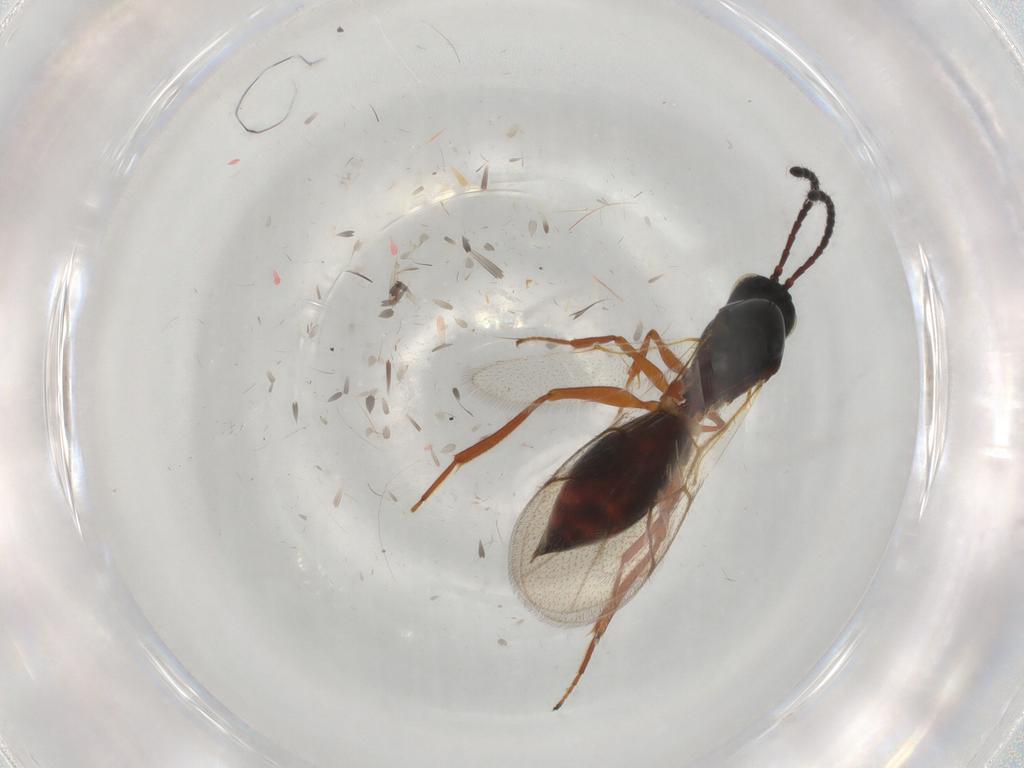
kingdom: Animalia
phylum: Arthropoda
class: Insecta
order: Hymenoptera
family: Figitidae
